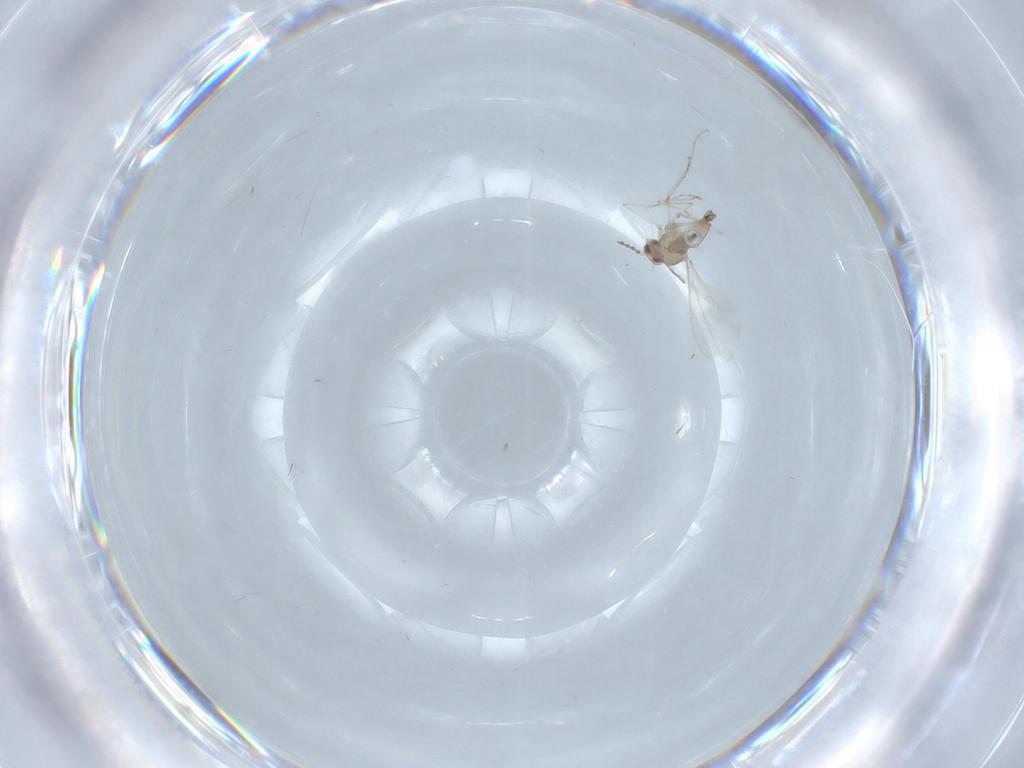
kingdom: Animalia
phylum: Arthropoda
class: Insecta
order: Diptera
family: Cecidomyiidae
